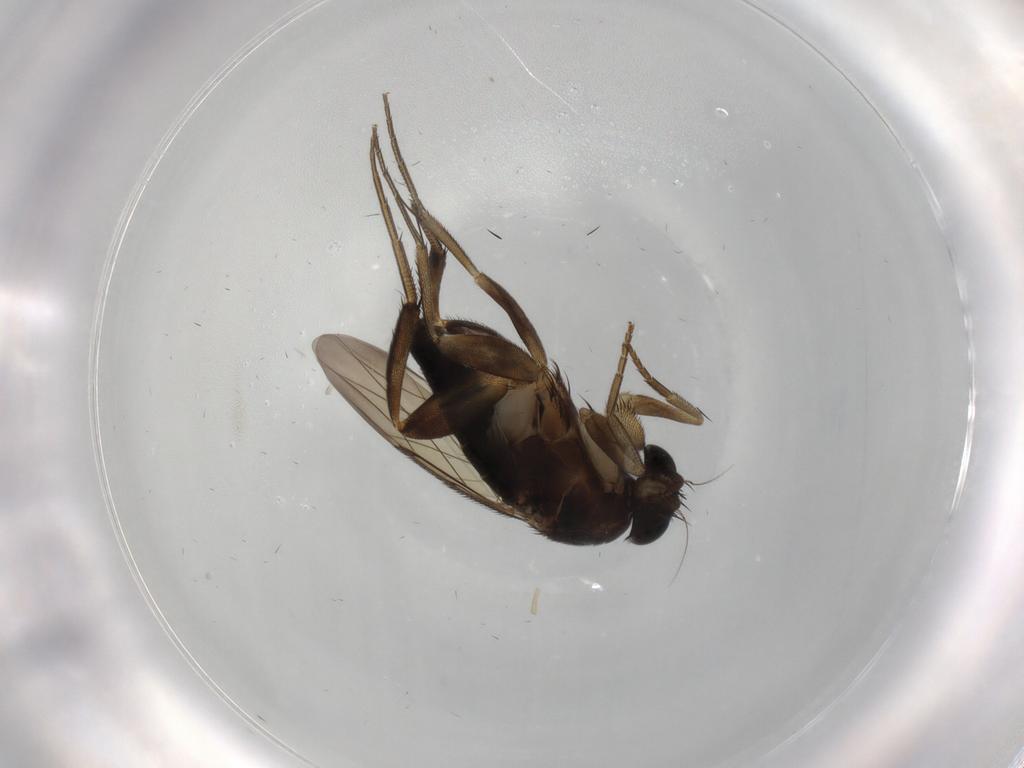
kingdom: Animalia
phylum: Arthropoda
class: Insecta
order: Diptera
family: Phoridae
